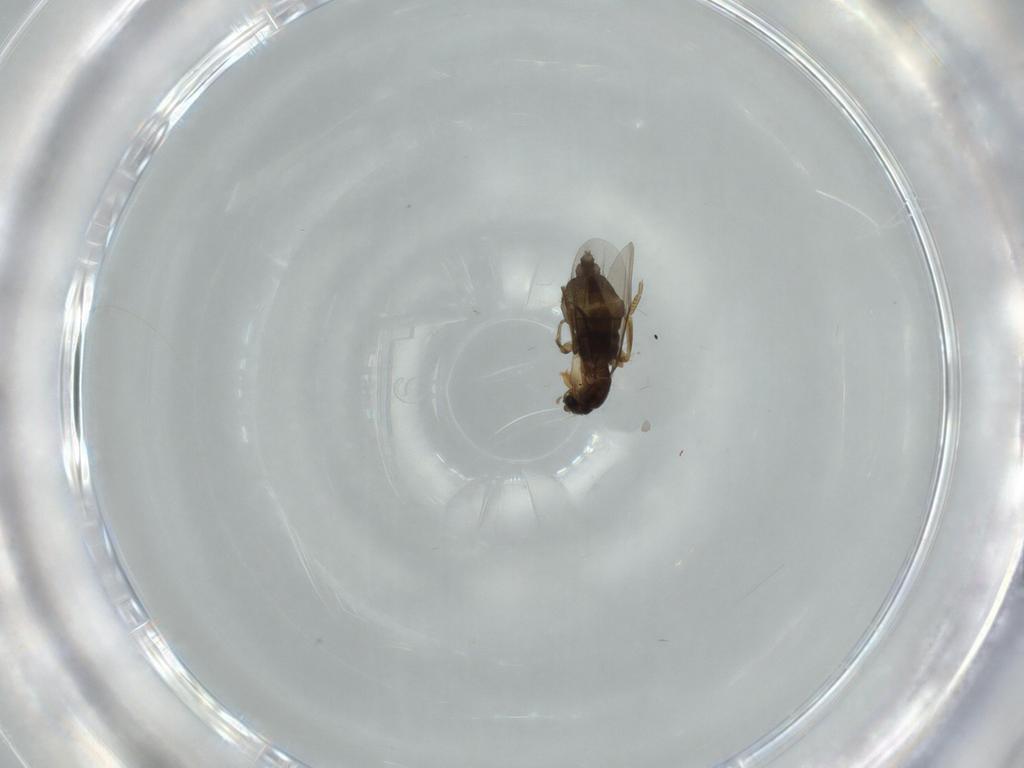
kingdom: Animalia
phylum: Arthropoda
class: Insecta
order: Diptera
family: Phoridae
